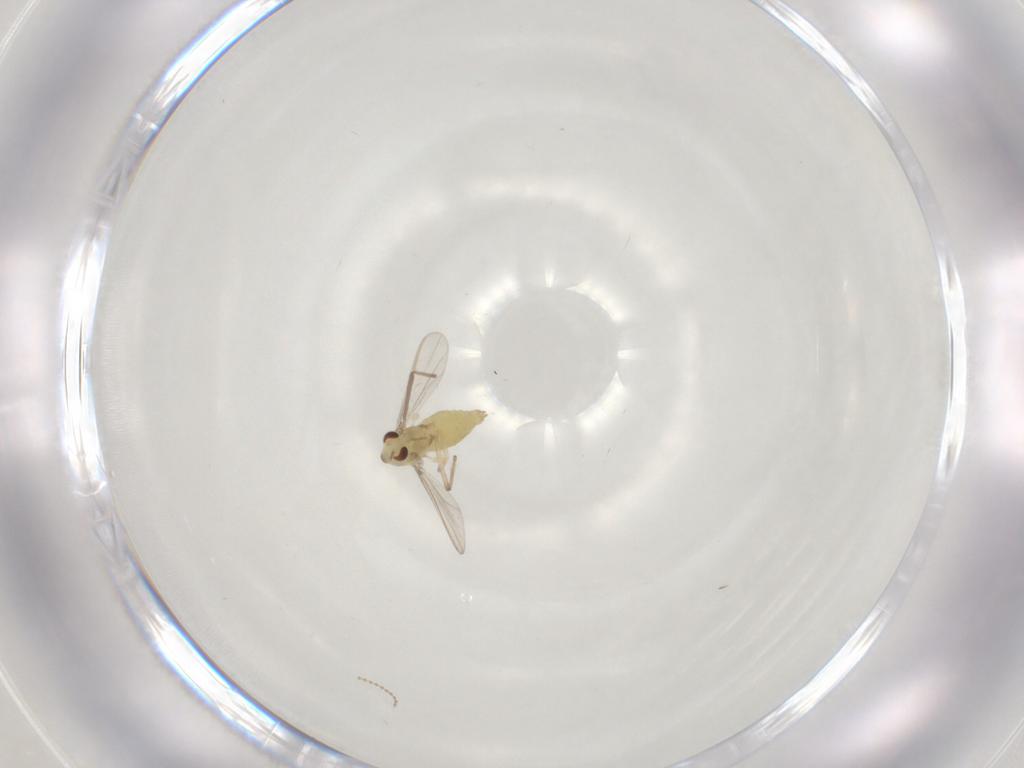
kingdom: Animalia
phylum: Arthropoda
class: Insecta
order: Diptera
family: Chironomidae
